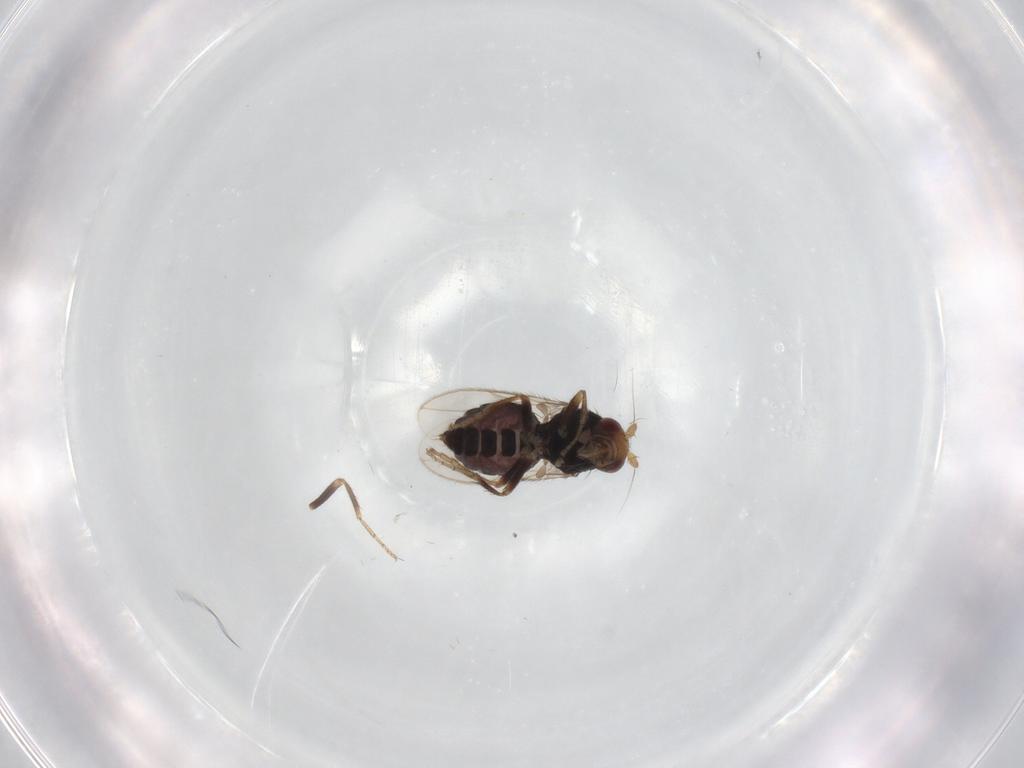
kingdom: Animalia
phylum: Arthropoda
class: Insecta
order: Diptera
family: Sphaeroceridae
